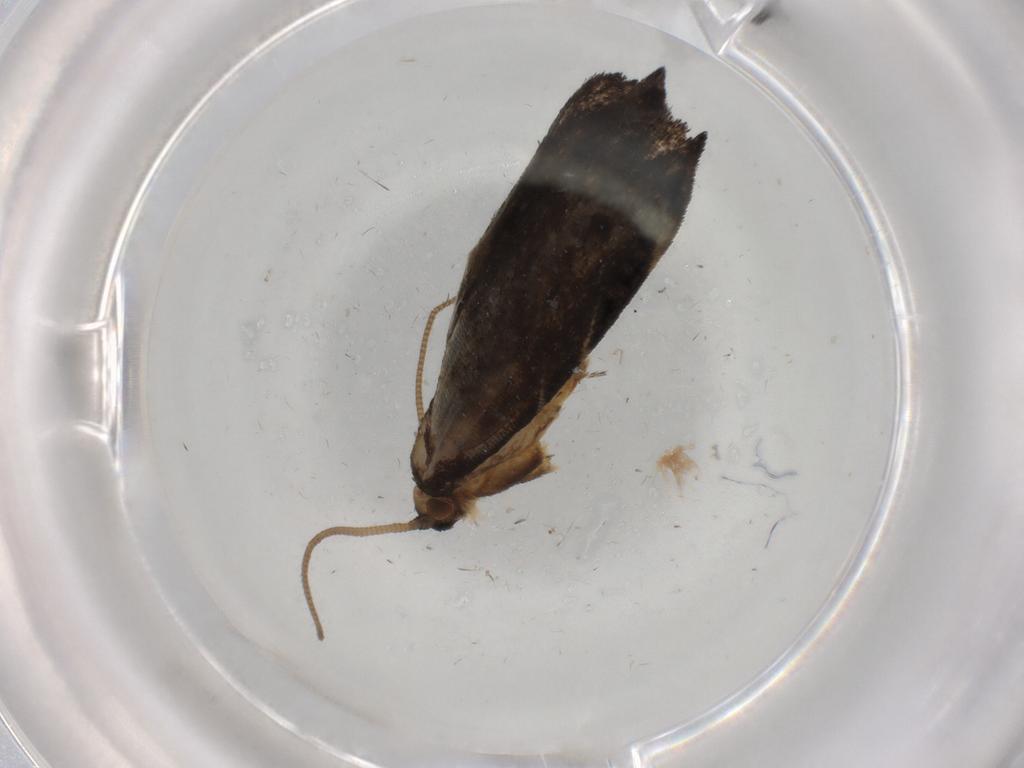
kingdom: Animalia
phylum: Arthropoda
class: Insecta
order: Lepidoptera
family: Dryadaulidae
